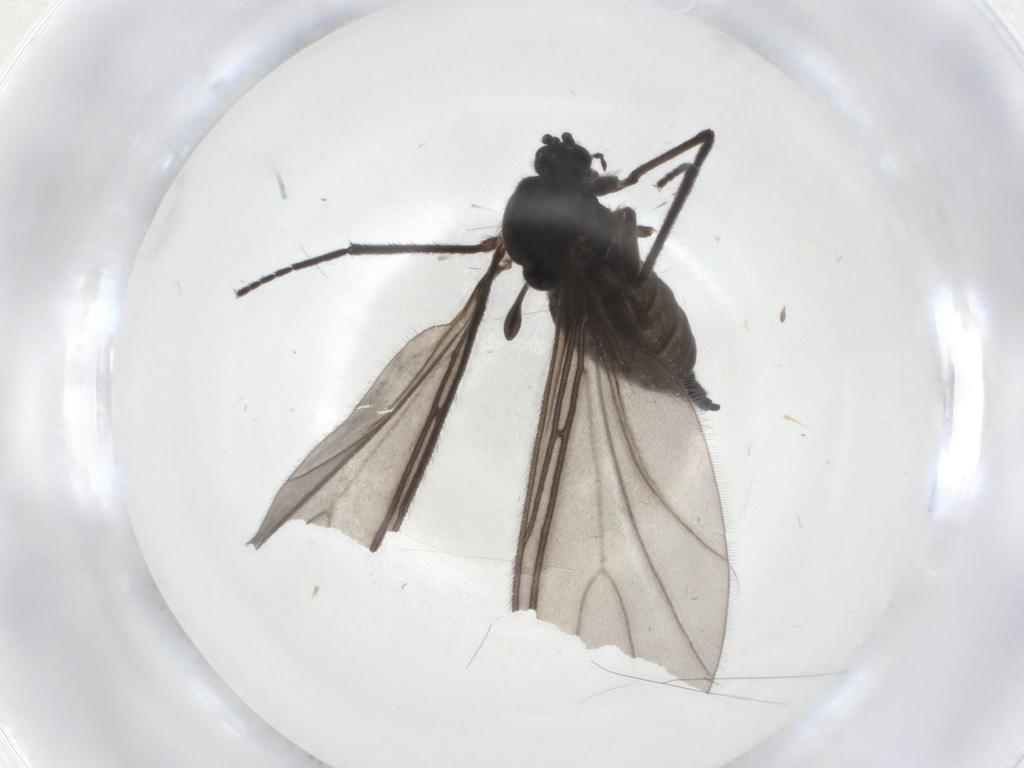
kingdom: Animalia
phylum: Arthropoda
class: Insecta
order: Diptera
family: Sciaridae
